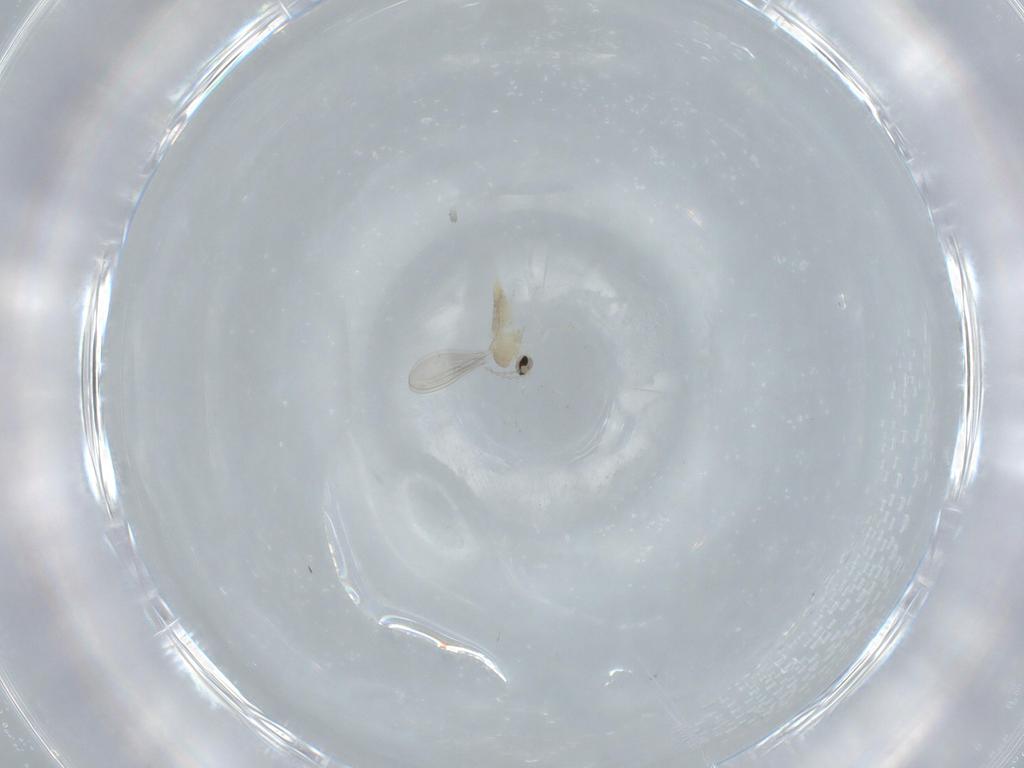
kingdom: Animalia
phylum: Arthropoda
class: Insecta
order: Diptera
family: Cecidomyiidae
